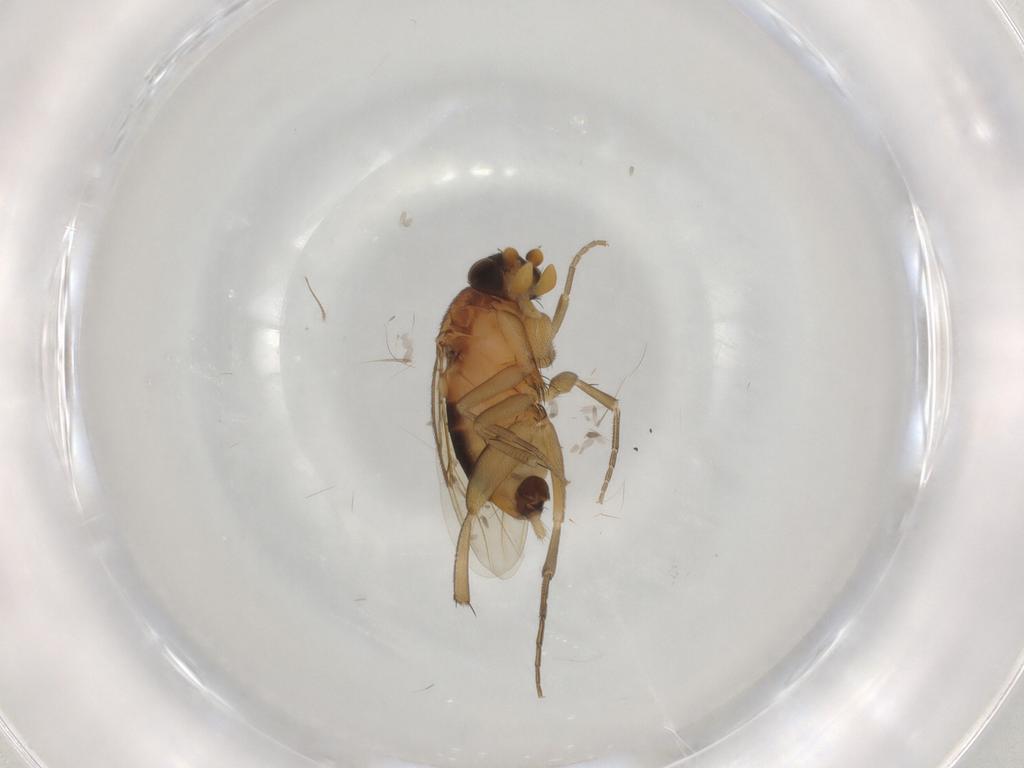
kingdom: Animalia
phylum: Arthropoda
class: Insecta
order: Diptera
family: Phoridae
